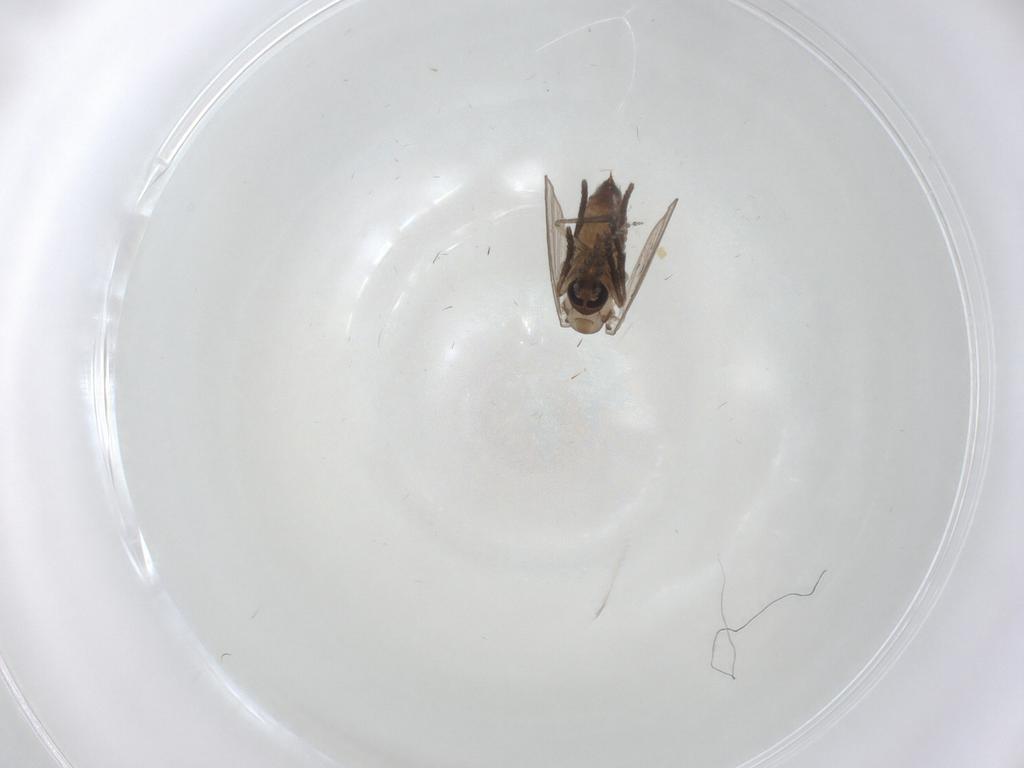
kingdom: Animalia
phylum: Arthropoda
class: Insecta
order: Diptera
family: Psychodidae
